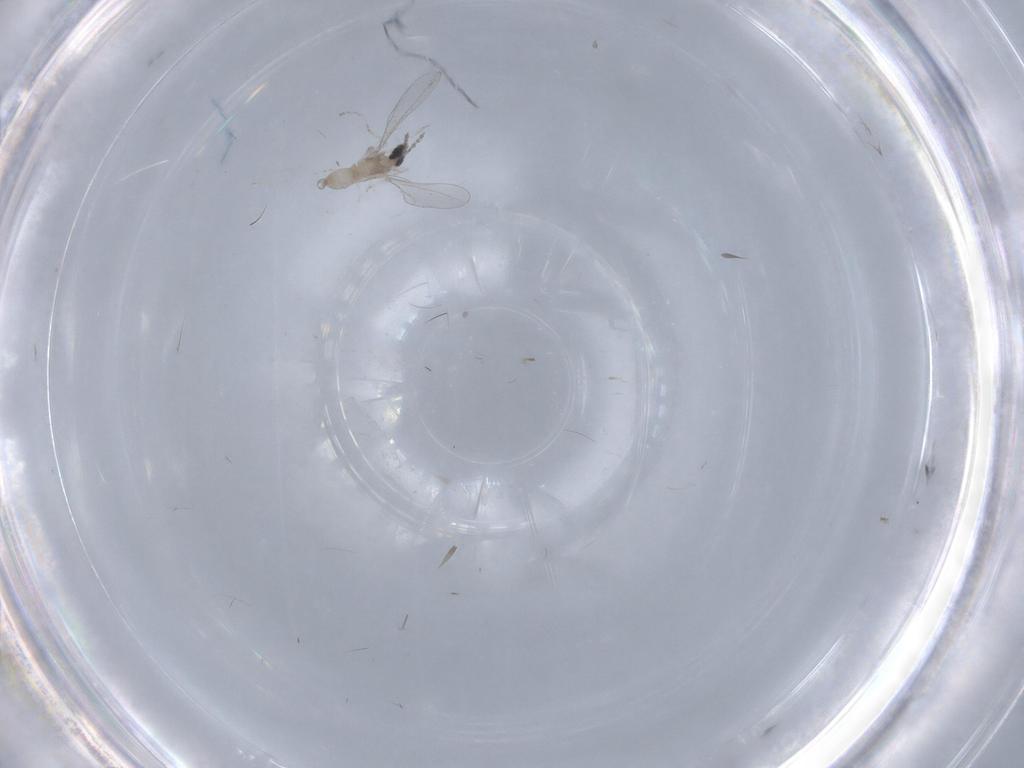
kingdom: Animalia
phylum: Arthropoda
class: Insecta
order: Diptera
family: Cecidomyiidae
